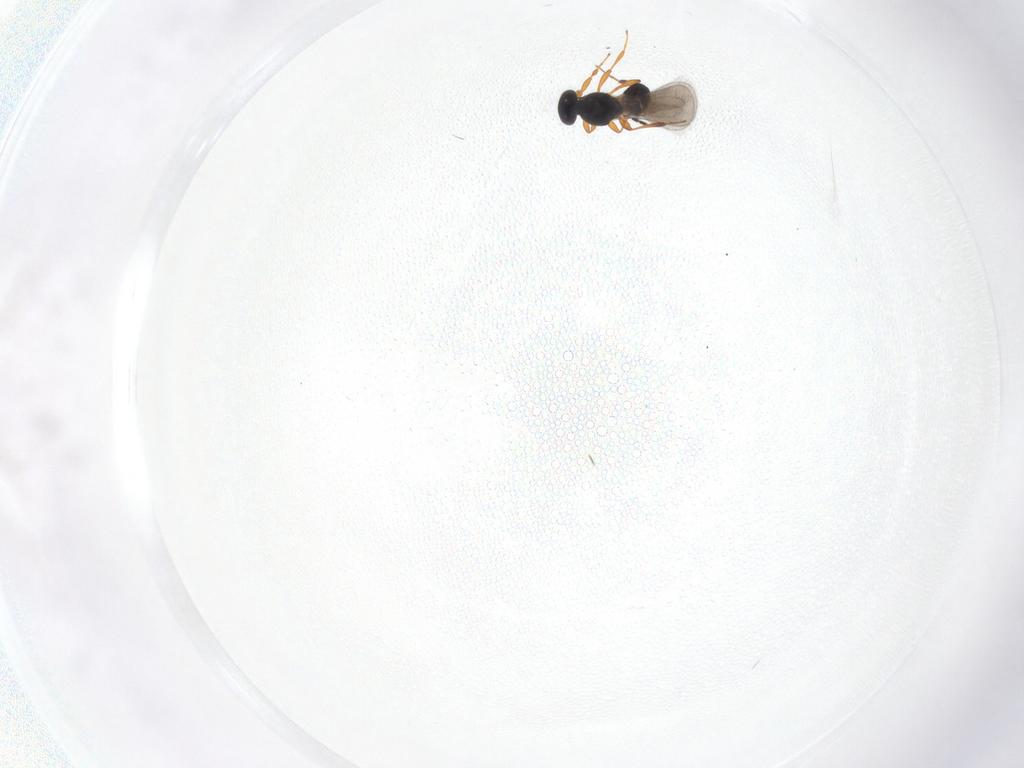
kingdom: Animalia
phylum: Arthropoda
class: Insecta
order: Hymenoptera
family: Platygastridae
